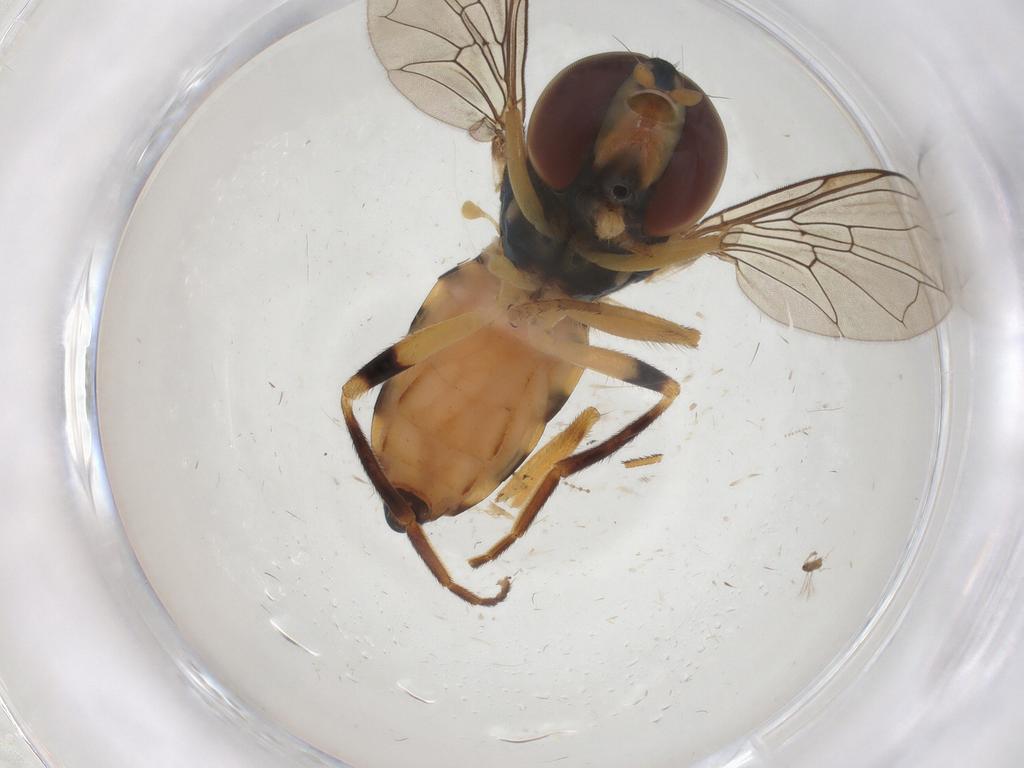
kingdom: Animalia
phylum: Arthropoda
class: Insecta
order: Diptera
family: Syrphidae
